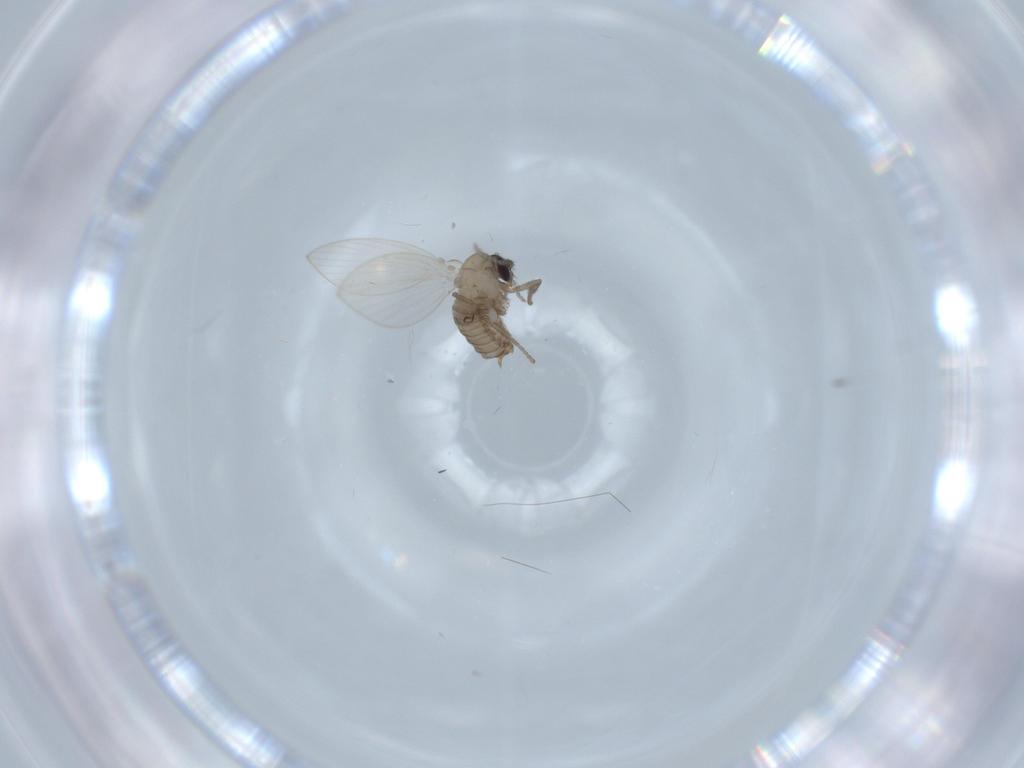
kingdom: Animalia
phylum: Arthropoda
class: Insecta
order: Diptera
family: Psychodidae
